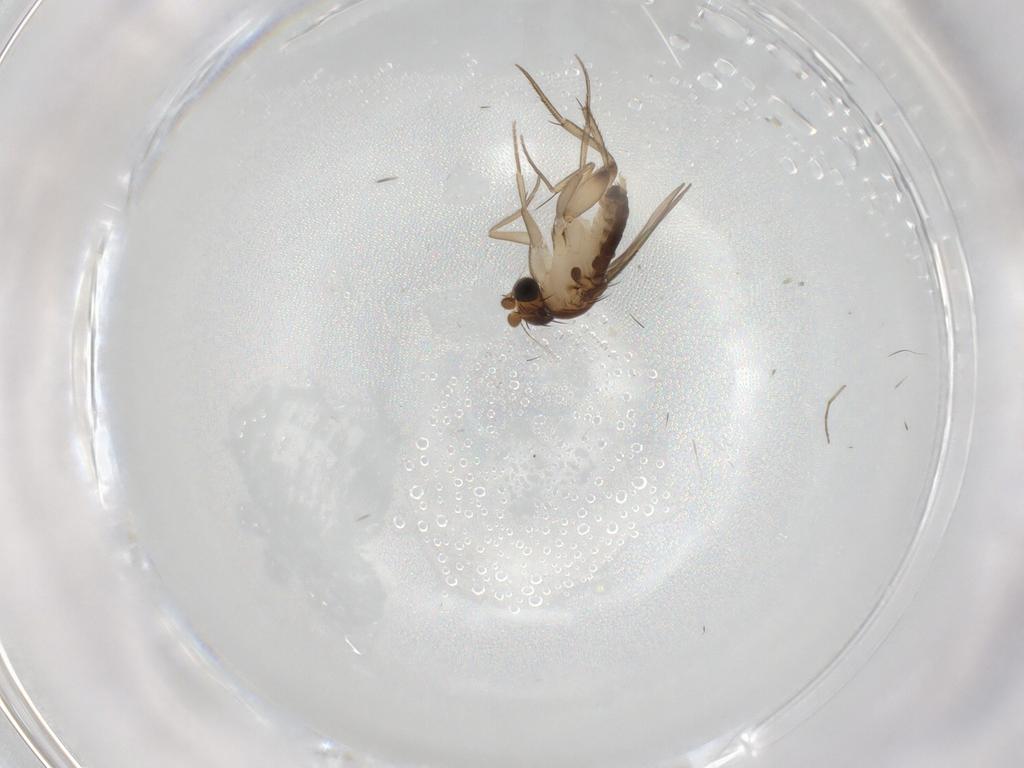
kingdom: Animalia
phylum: Arthropoda
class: Insecta
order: Diptera
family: Phoridae
